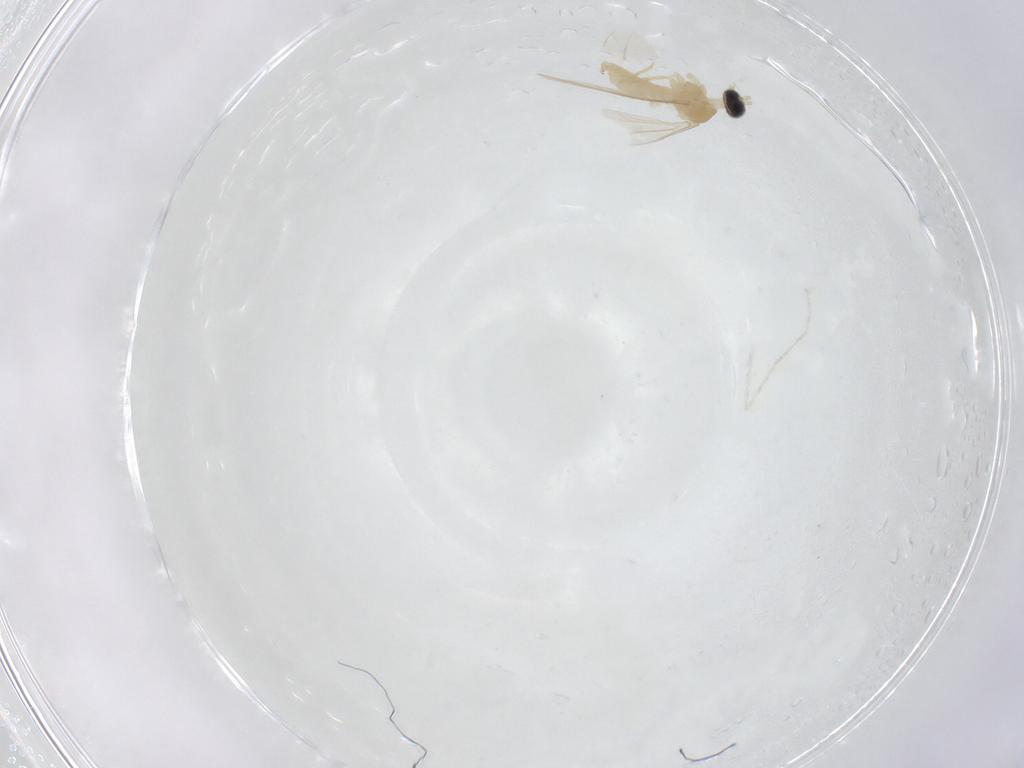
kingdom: Animalia
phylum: Arthropoda
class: Insecta
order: Diptera
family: Cecidomyiidae
